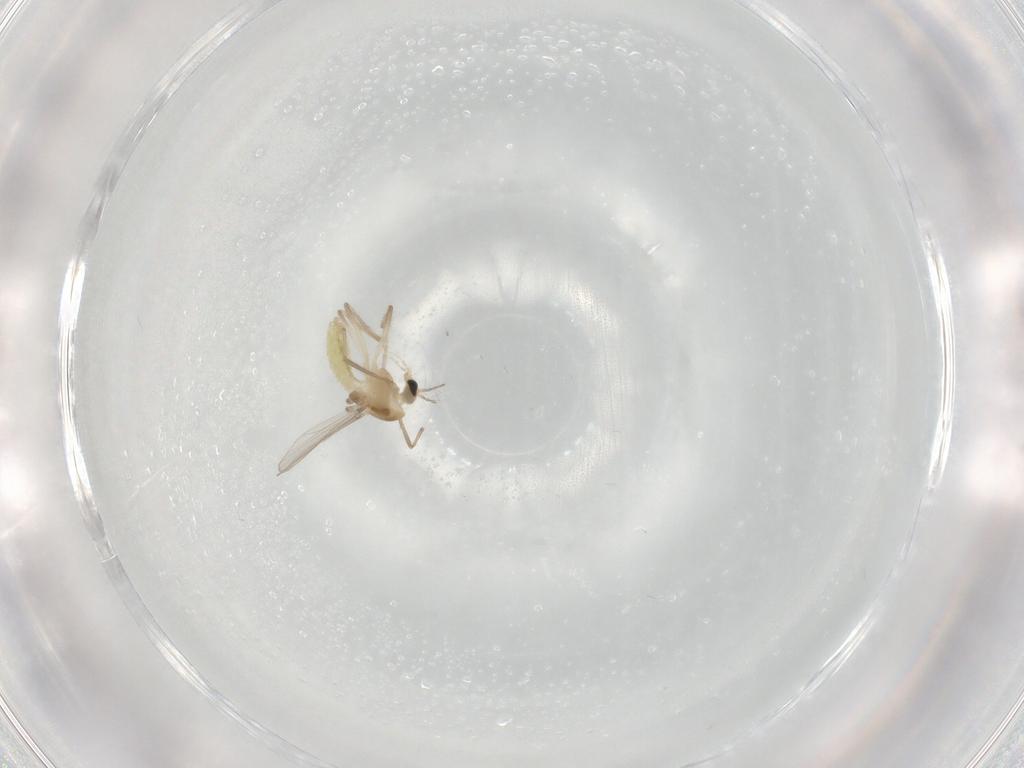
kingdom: Animalia
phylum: Arthropoda
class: Insecta
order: Diptera
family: Chironomidae
